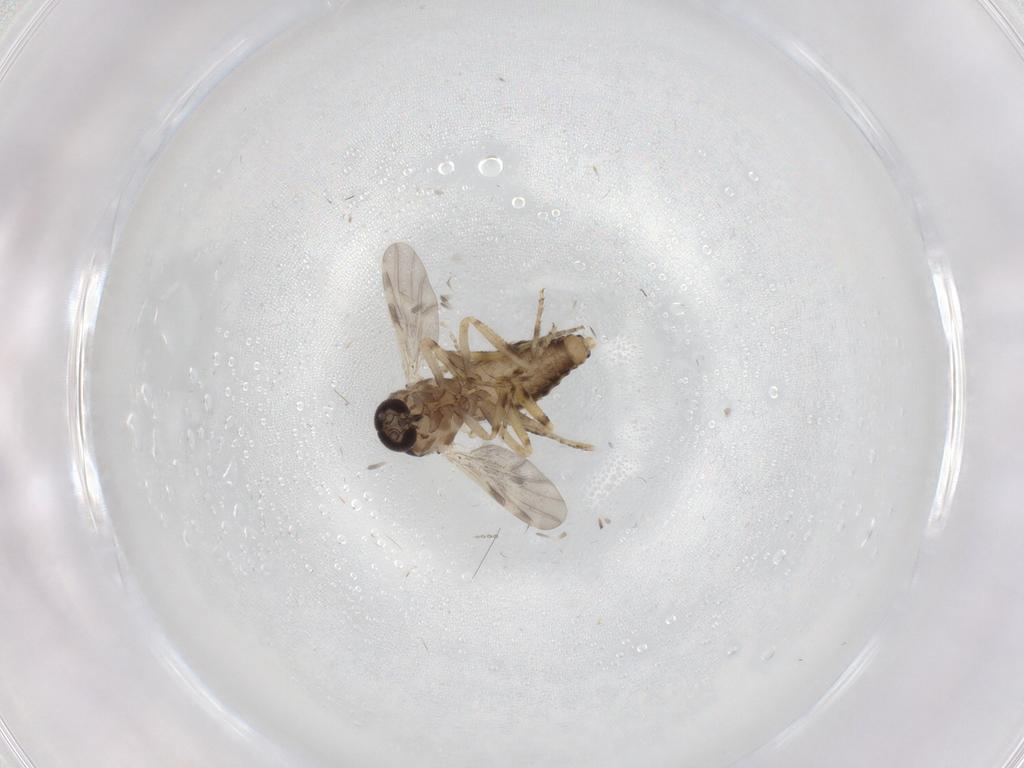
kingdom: Animalia
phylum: Arthropoda
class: Insecta
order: Diptera
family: Ceratopogonidae
